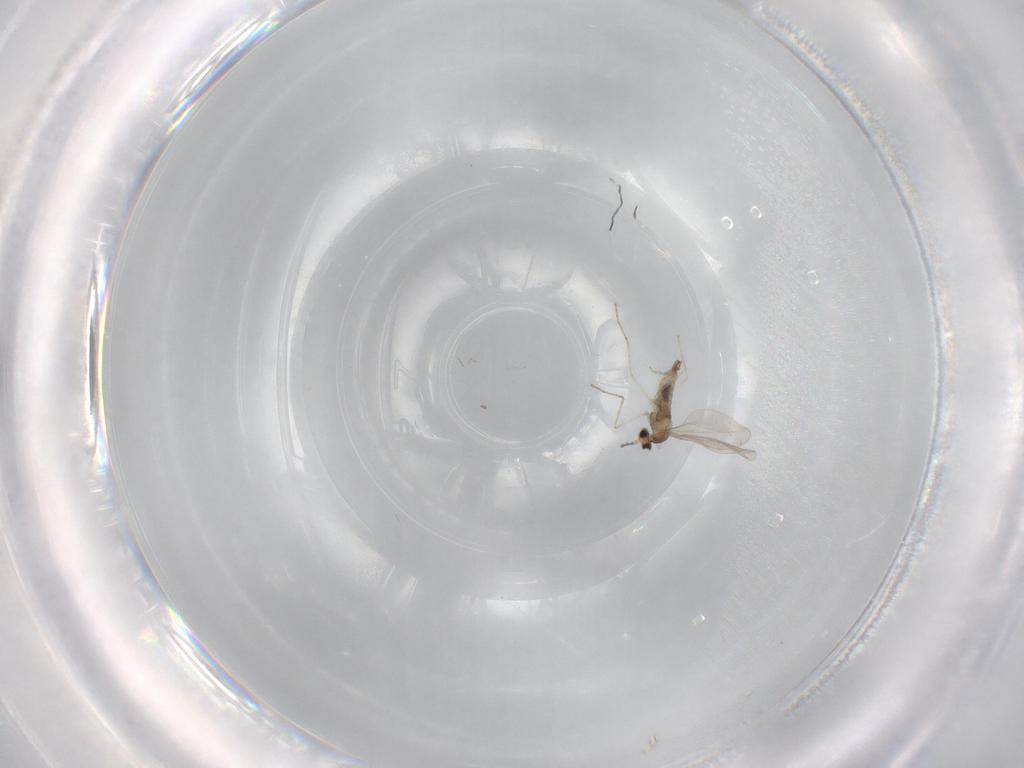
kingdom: Animalia
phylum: Arthropoda
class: Insecta
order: Diptera
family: Cecidomyiidae
